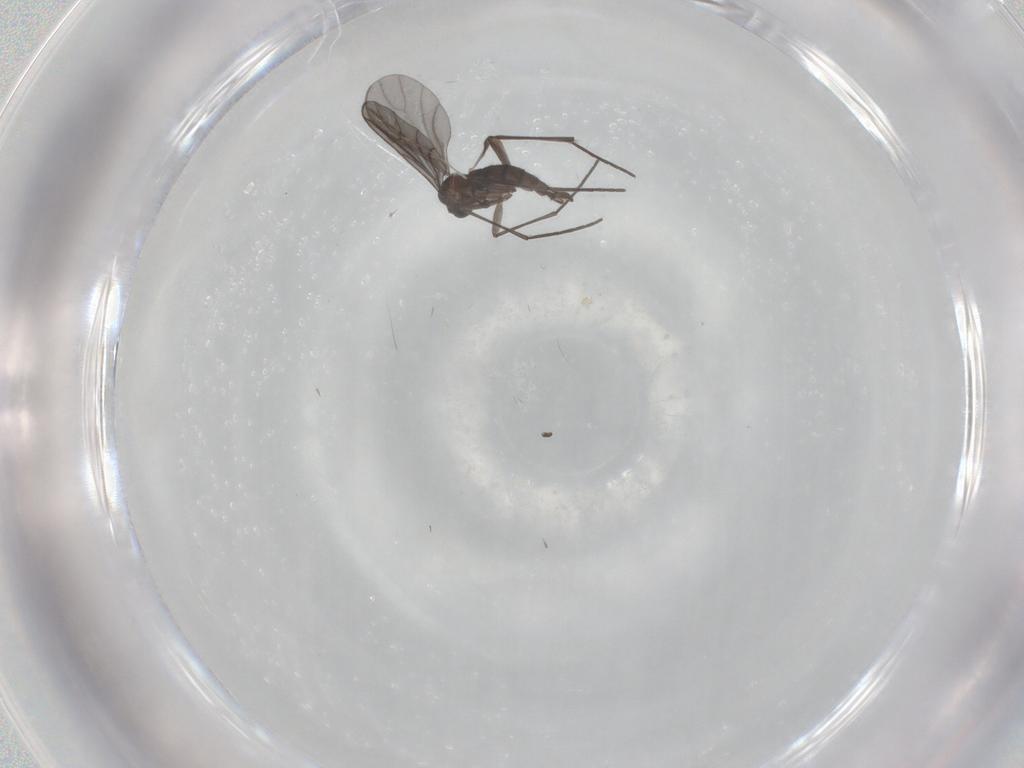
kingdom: Animalia
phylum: Arthropoda
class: Insecta
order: Diptera
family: Sciaridae
